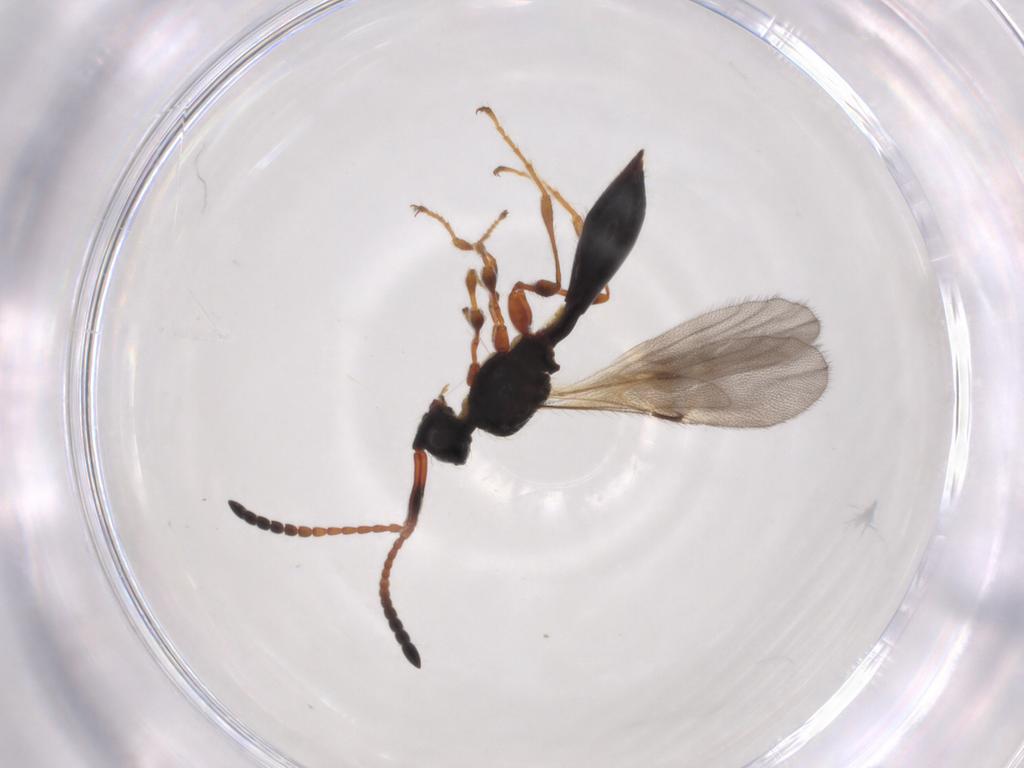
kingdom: Animalia
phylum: Arthropoda
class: Insecta
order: Hymenoptera
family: Diapriidae
